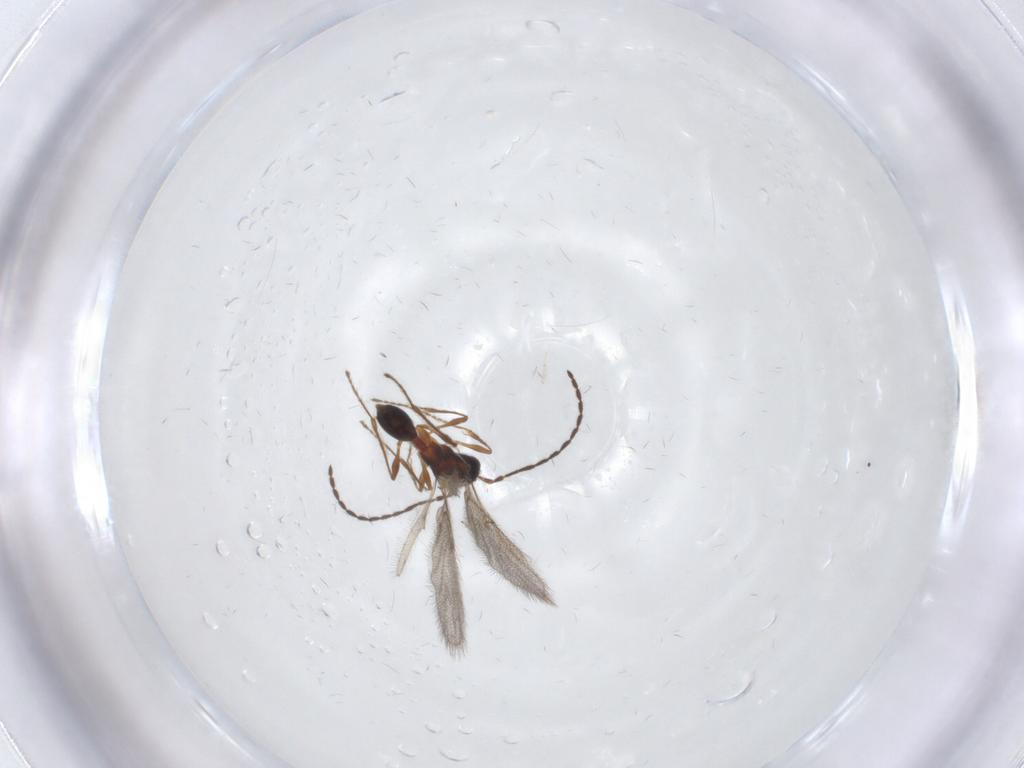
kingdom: Animalia
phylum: Arthropoda
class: Insecta
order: Hymenoptera
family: Diapriidae
